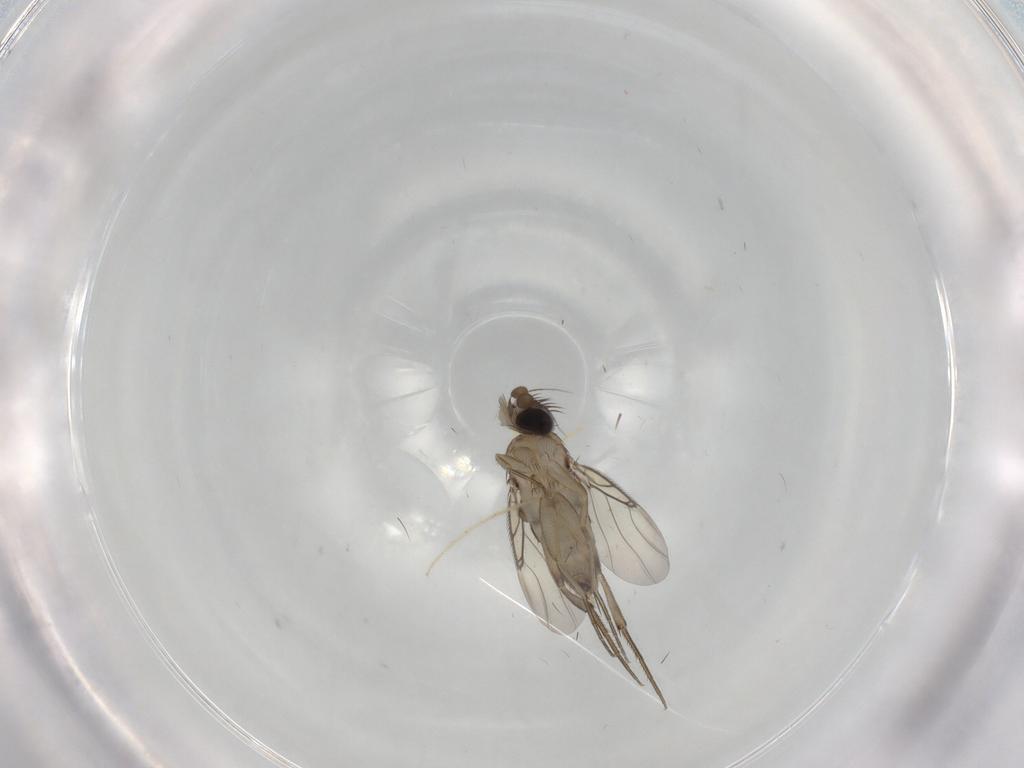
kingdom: Animalia
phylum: Arthropoda
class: Insecta
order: Diptera
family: Phoridae
